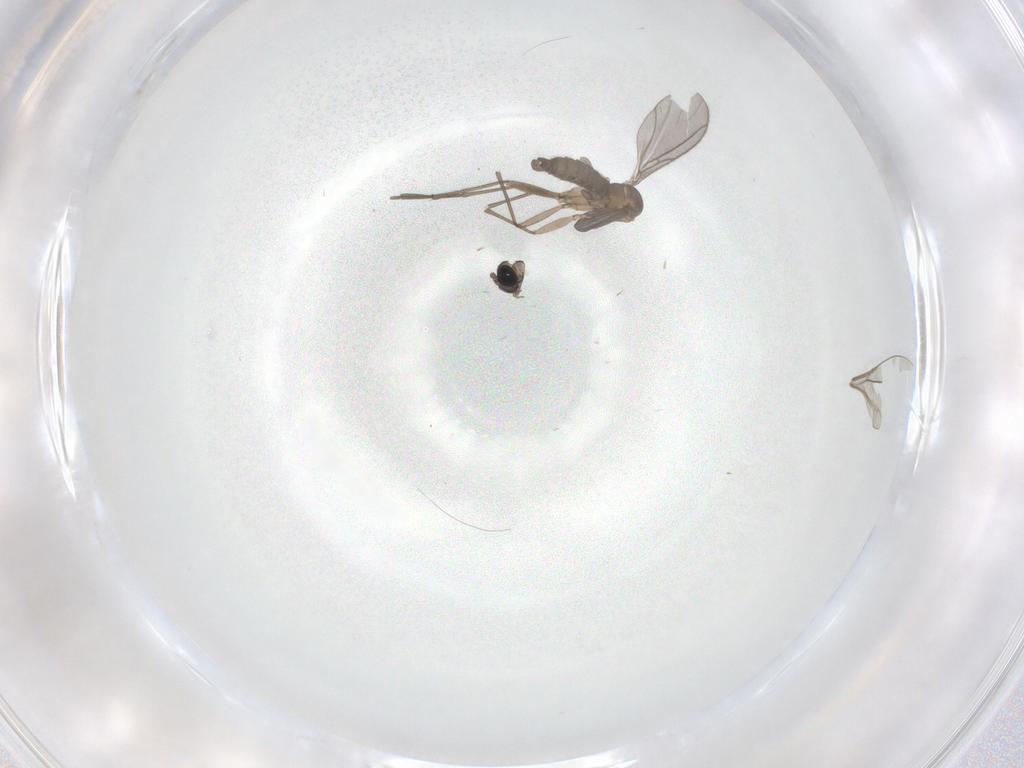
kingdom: Animalia
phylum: Arthropoda
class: Insecta
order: Diptera
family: Sciaridae
